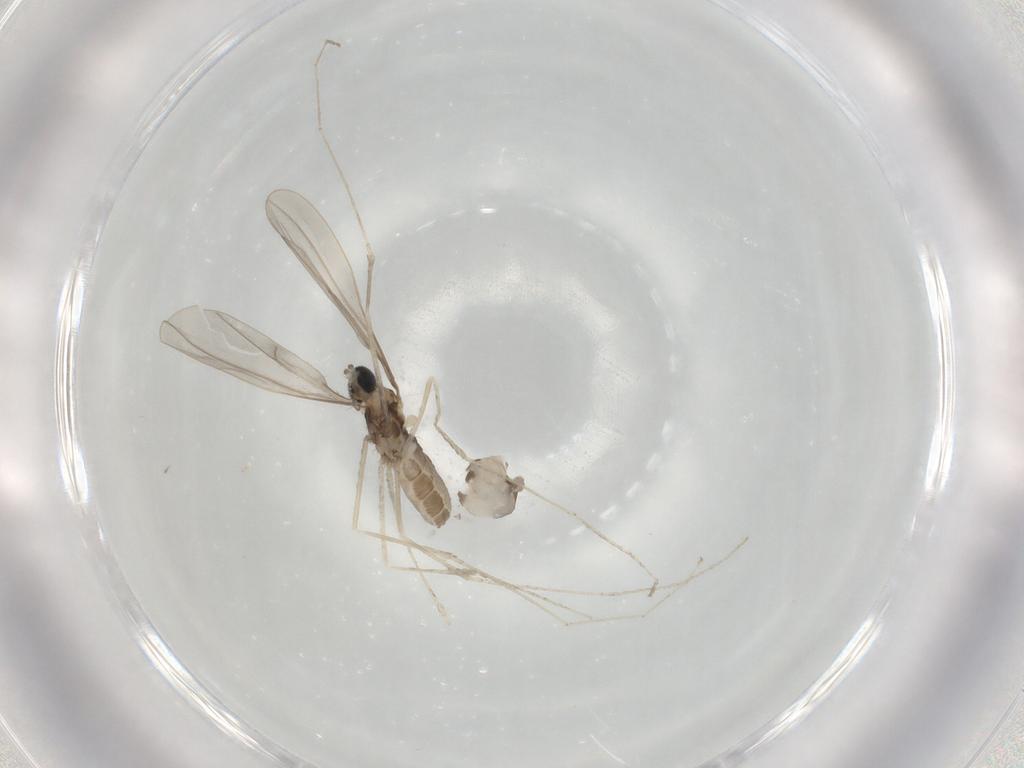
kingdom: Animalia
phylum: Arthropoda
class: Insecta
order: Diptera
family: Cecidomyiidae
